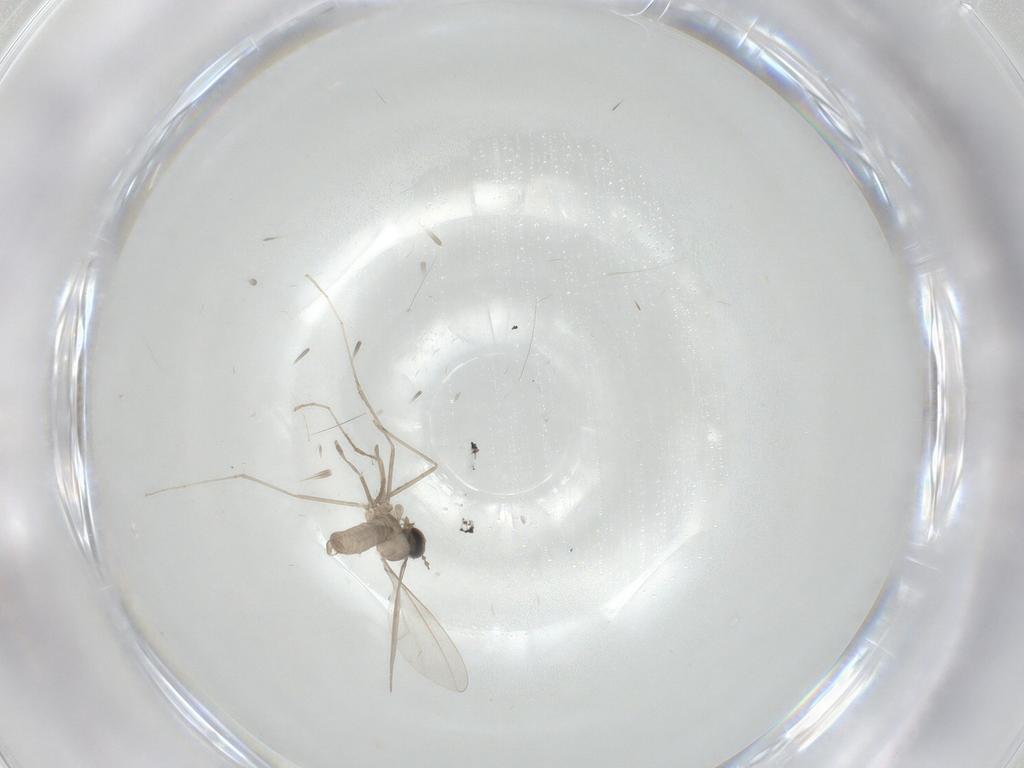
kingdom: Animalia
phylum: Arthropoda
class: Insecta
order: Diptera
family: Cecidomyiidae
